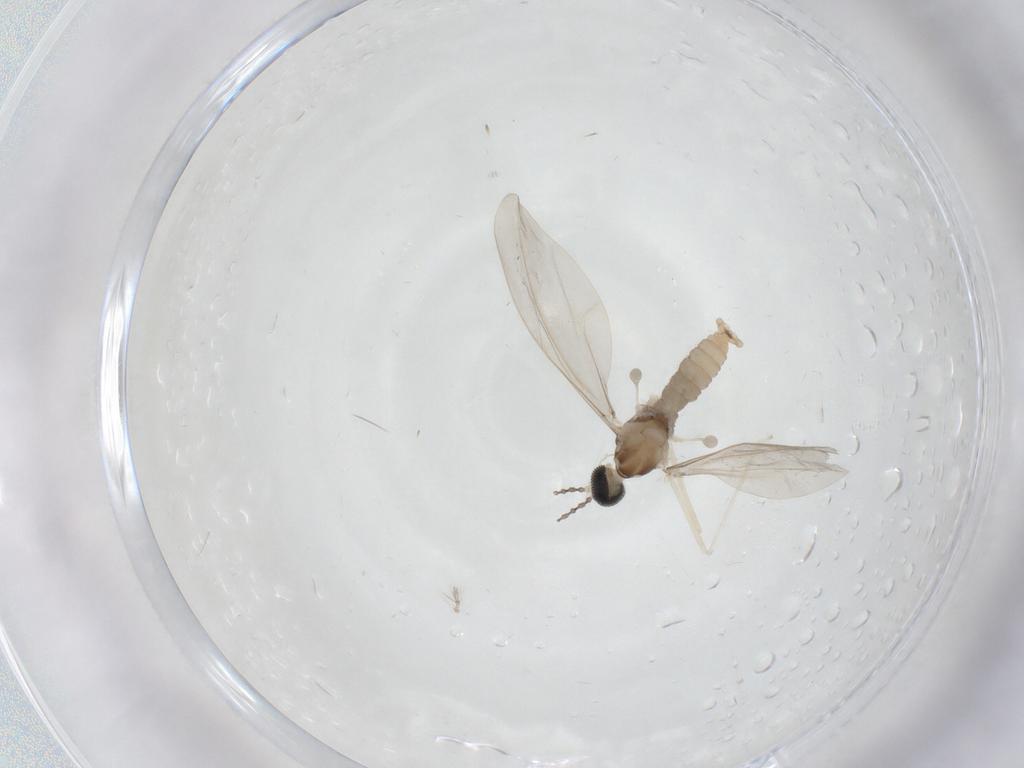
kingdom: Animalia
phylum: Arthropoda
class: Insecta
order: Diptera
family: Cecidomyiidae
